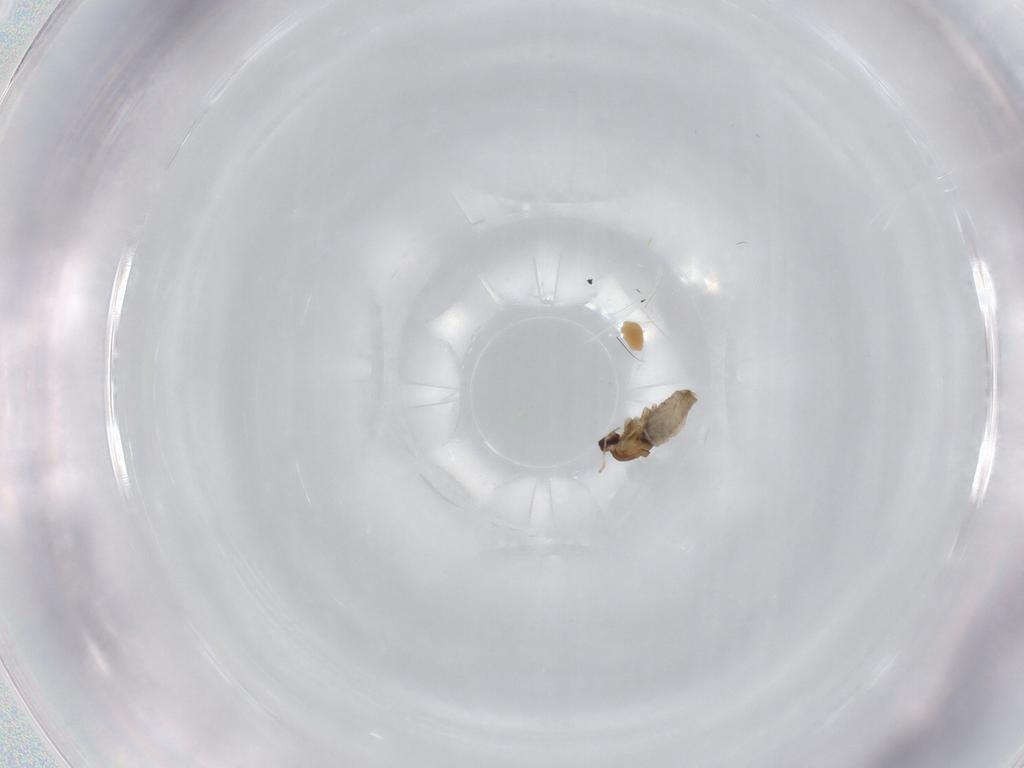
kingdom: Animalia
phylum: Arthropoda
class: Insecta
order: Diptera
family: Cecidomyiidae
